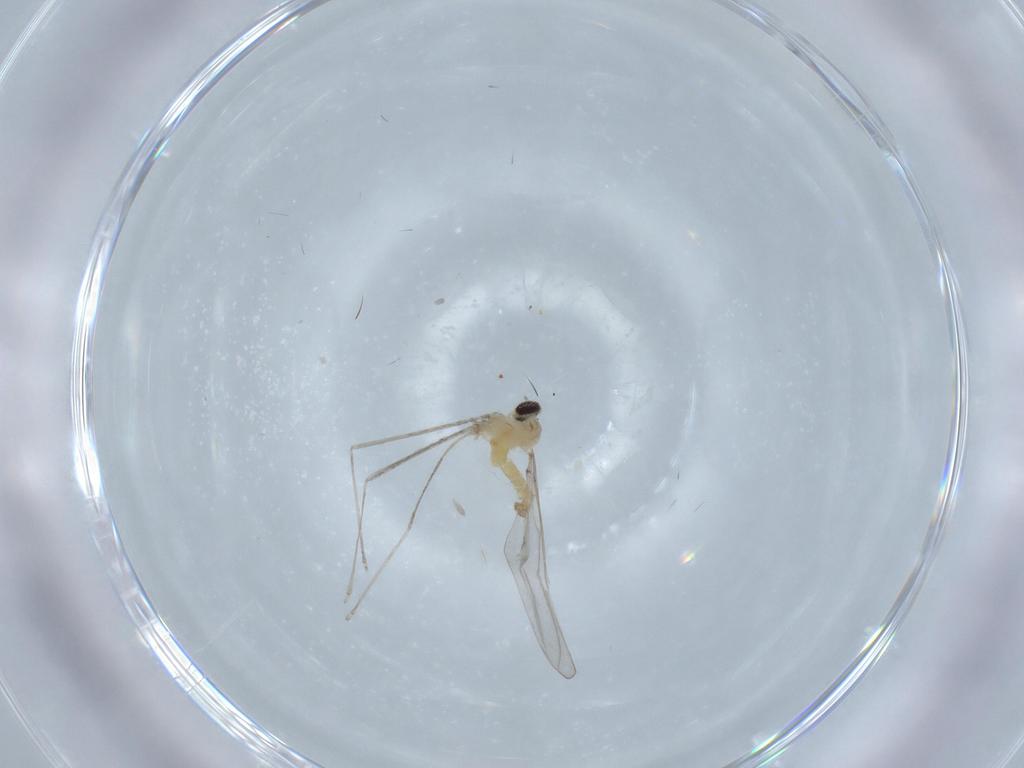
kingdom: Animalia
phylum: Arthropoda
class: Insecta
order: Diptera
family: Cecidomyiidae
